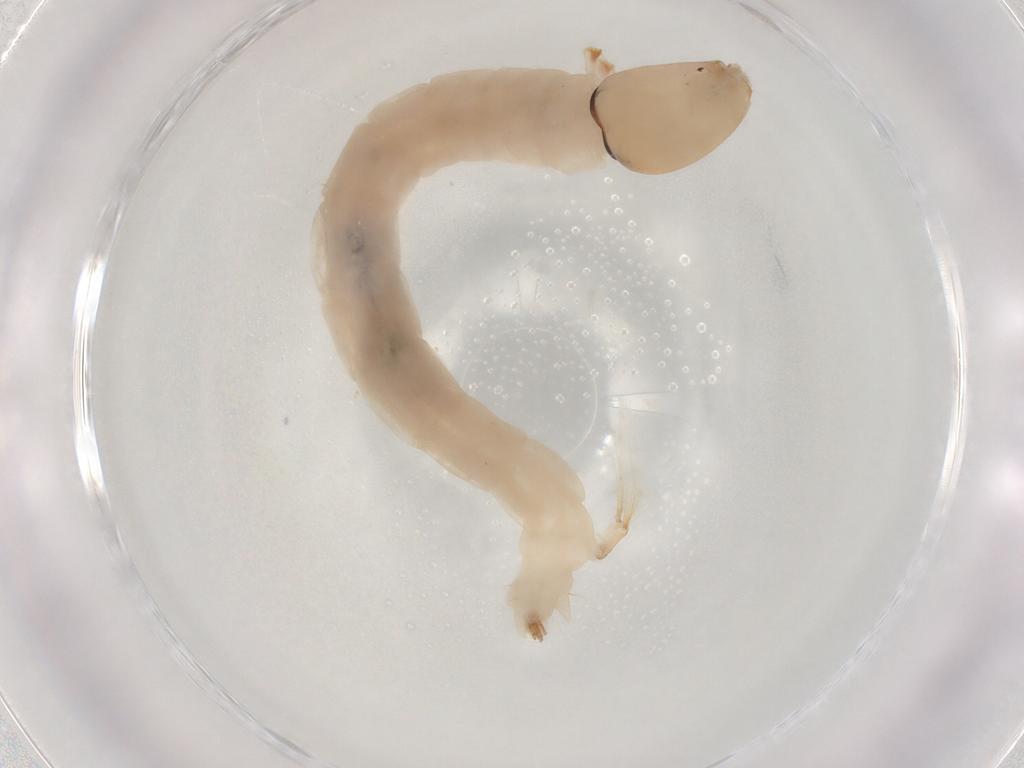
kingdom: Animalia
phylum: Arthropoda
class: Insecta
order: Diptera
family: Chironomidae
